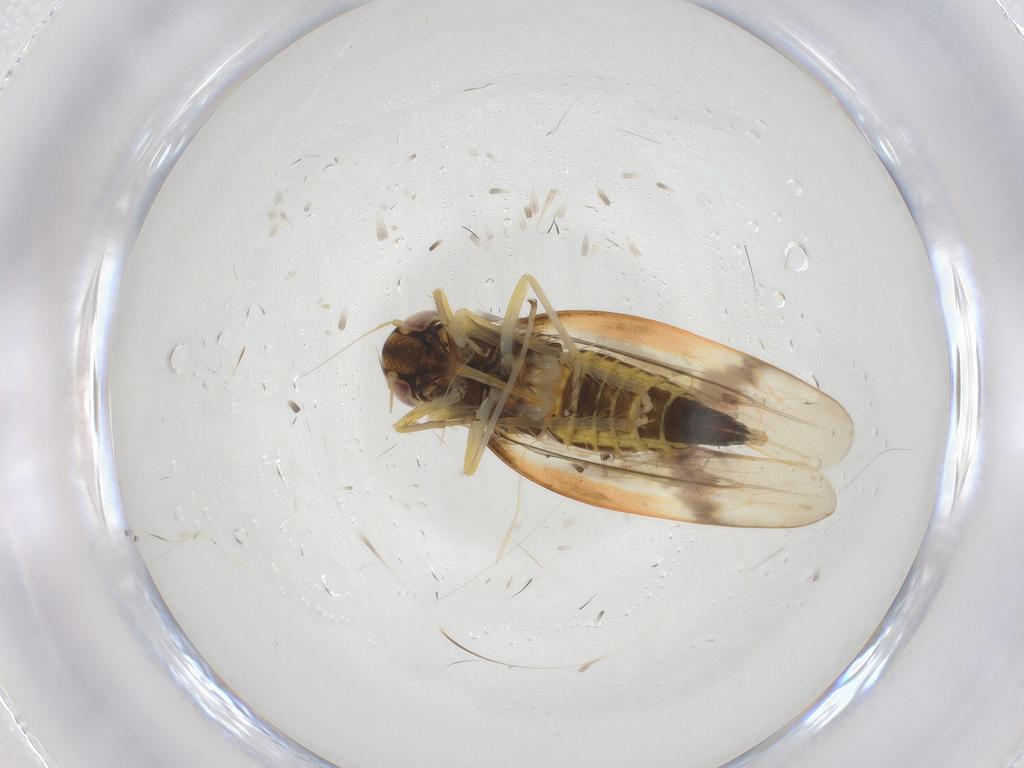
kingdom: Animalia
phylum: Arthropoda
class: Insecta
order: Hemiptera
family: Cicadellidae
